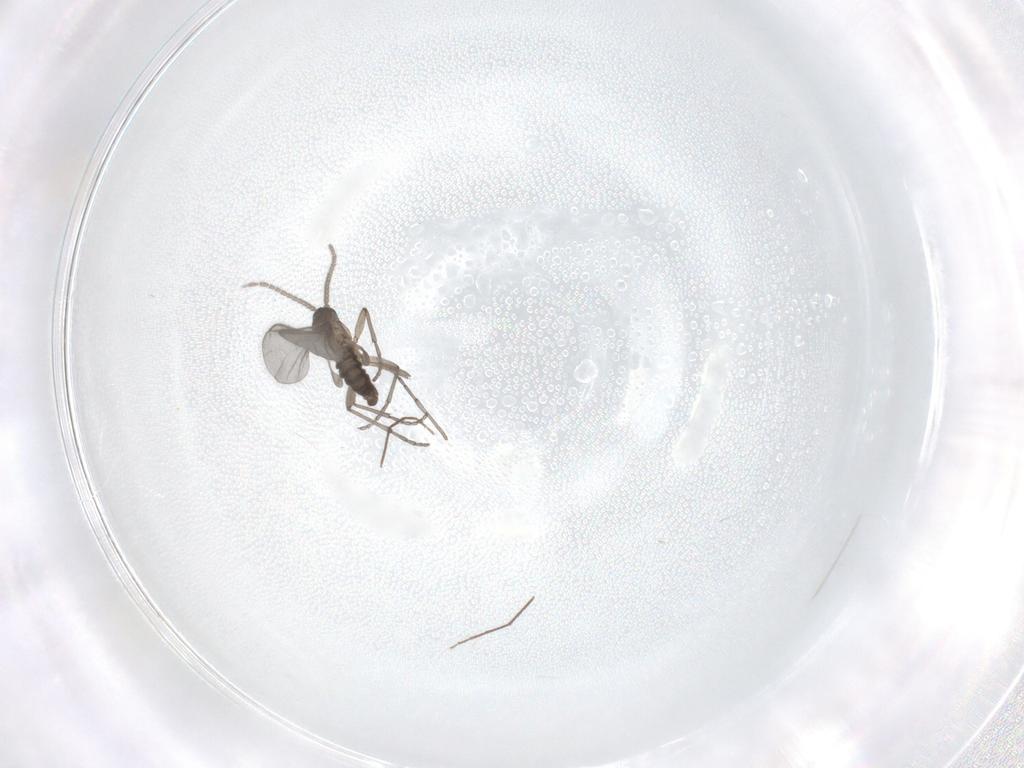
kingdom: Animalia
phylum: Arthropoda
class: Insecta
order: Diptera
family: Sciaridae
